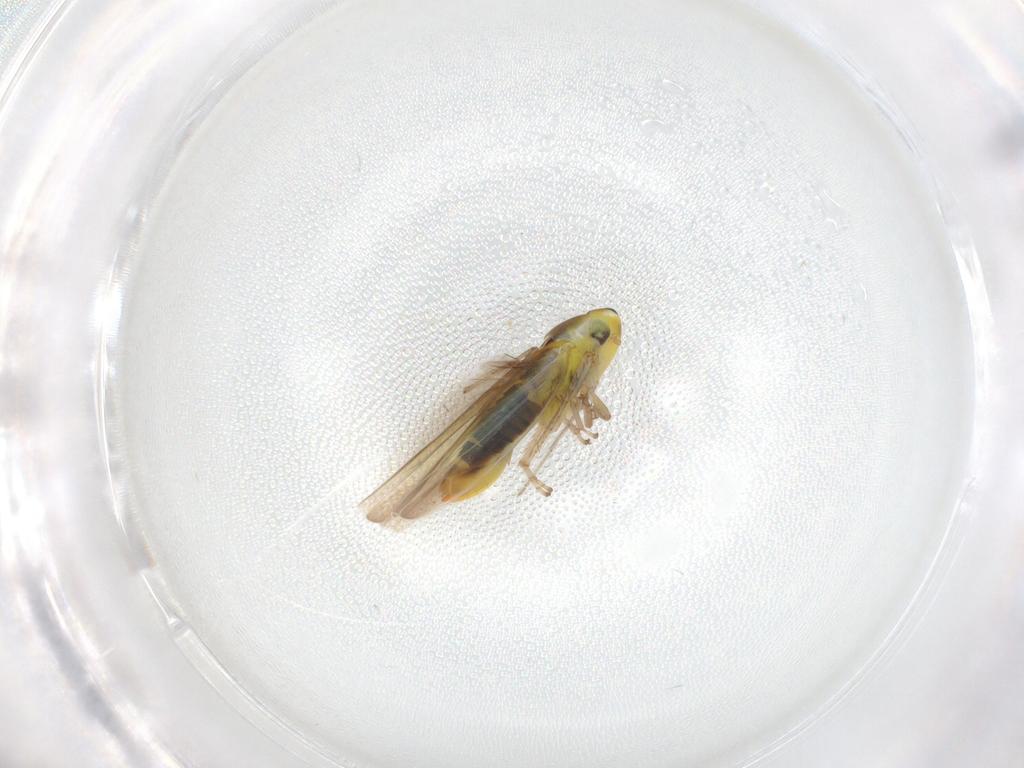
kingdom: Animalia
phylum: Arthropoda
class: Insecta
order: Hemiptera
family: Cicadellidae
